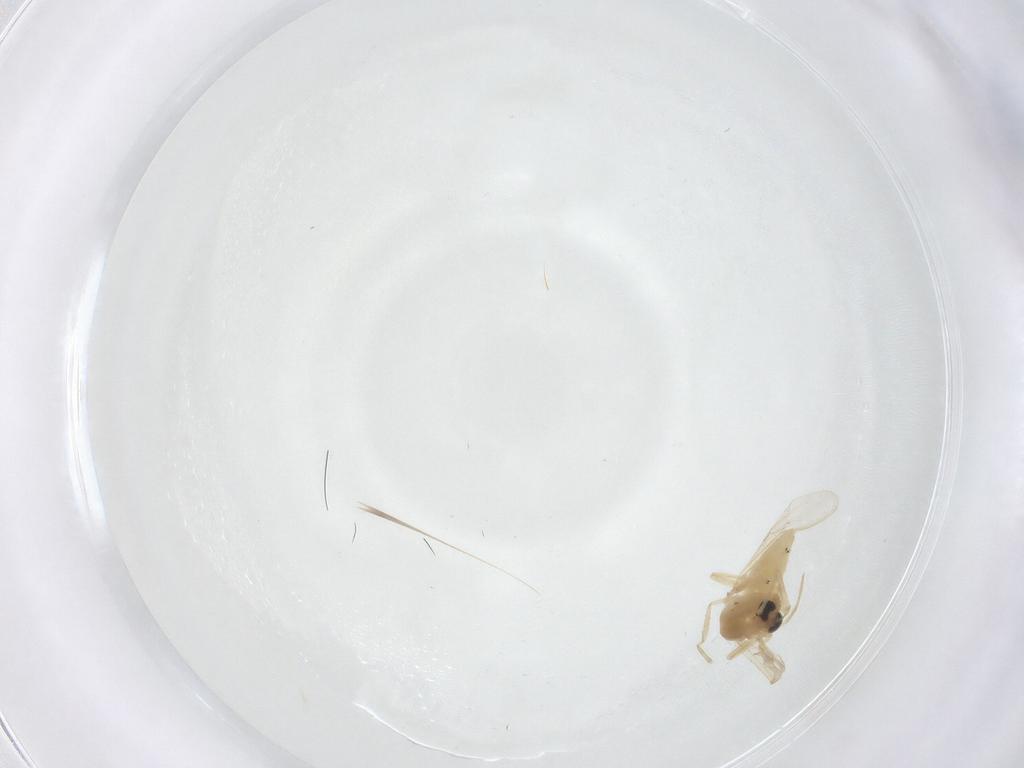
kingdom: Animalia
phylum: Arthropoda
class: Insecta
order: Diptera
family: Chironomidae
